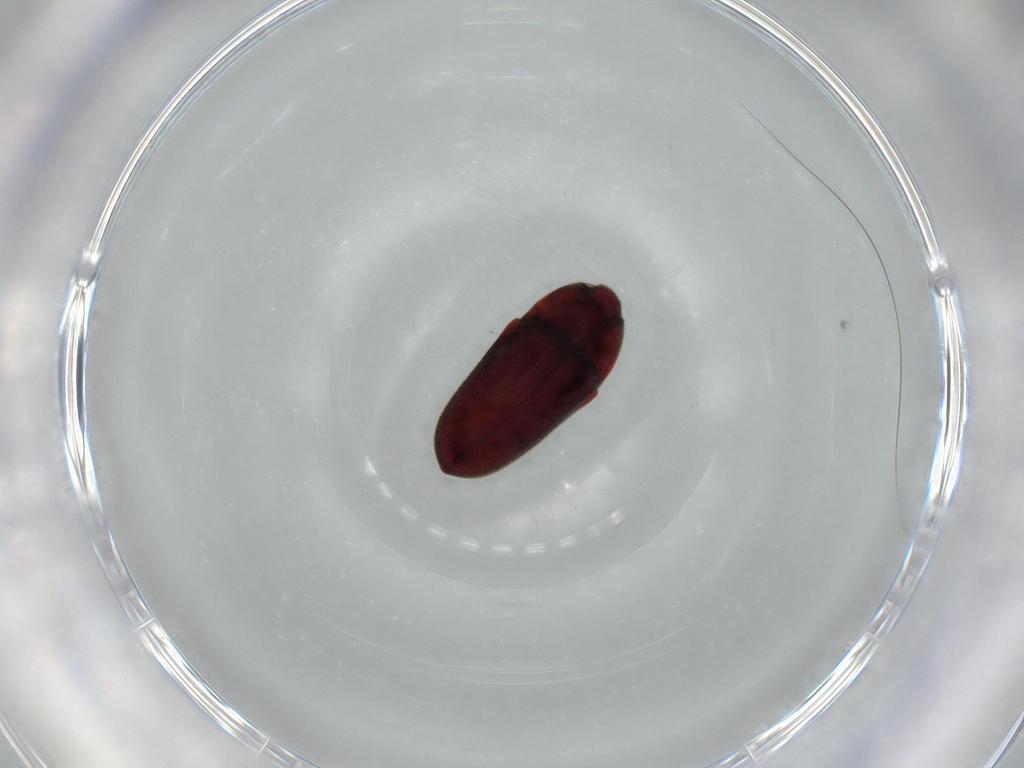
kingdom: Animalia
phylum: Arthropoda
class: Insecta
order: Coleoptera
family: Throscidae
